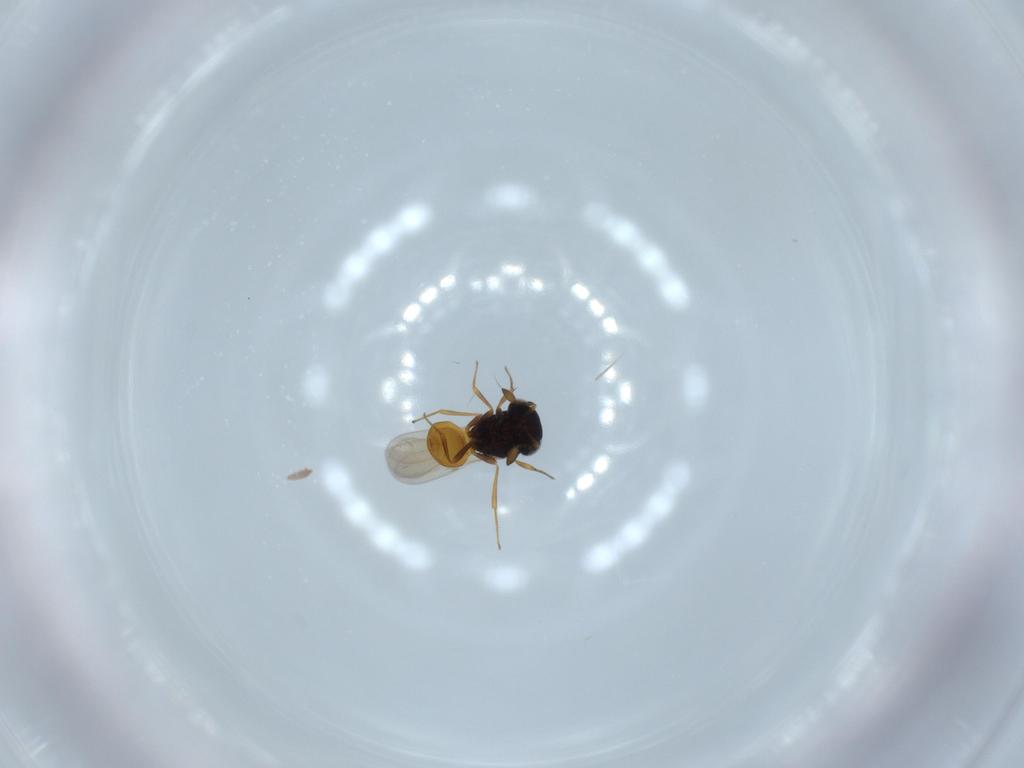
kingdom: Animalia
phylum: Arthropoda
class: Insecta
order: Hymenoptera
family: Scelionidae
